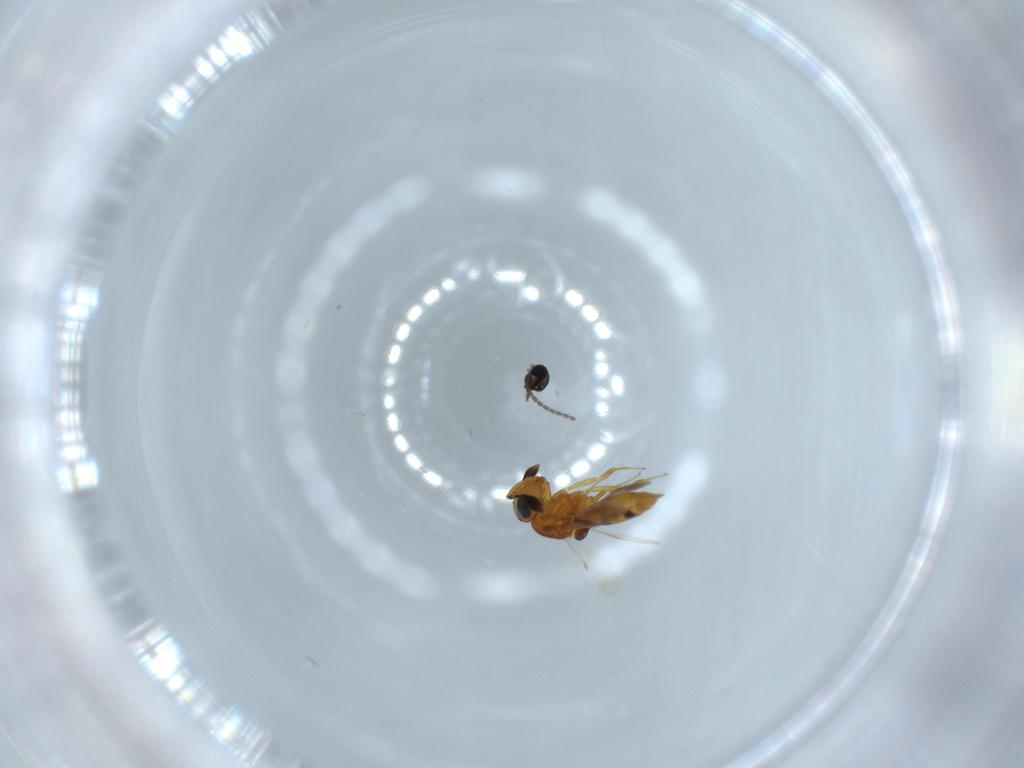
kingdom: Animalia
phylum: Arthropoda
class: Insecta
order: Hymenoptera
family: Scelionidae
